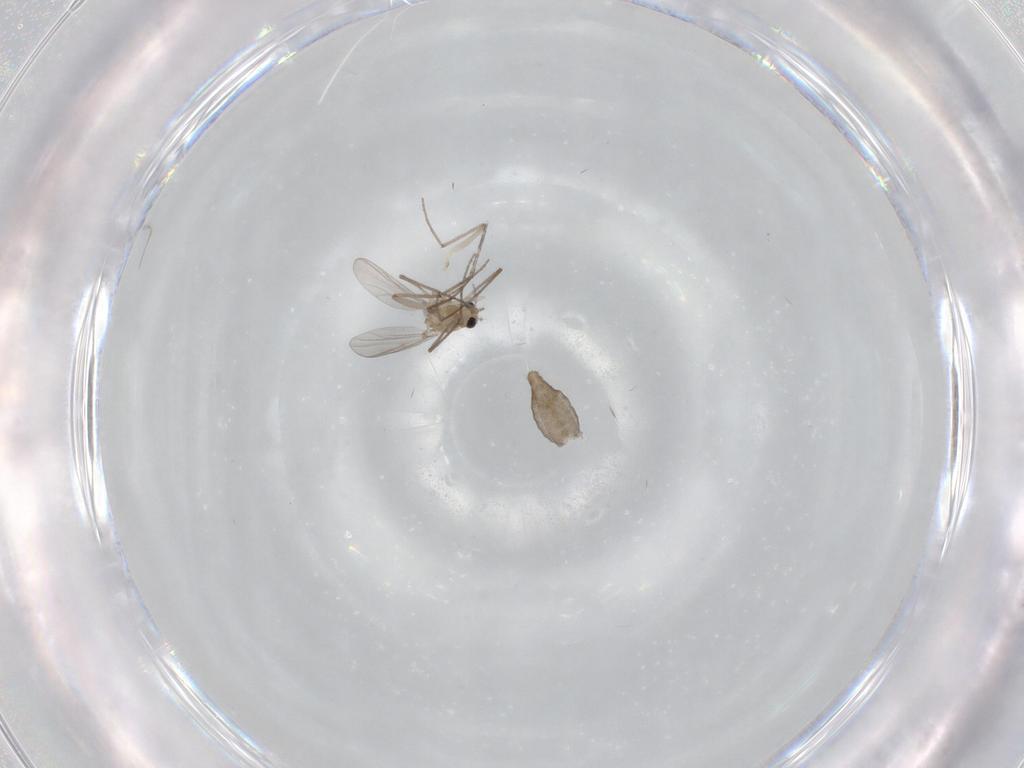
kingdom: Animalia
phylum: Arthropoda
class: Insecta
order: Diptera
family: Chironomidae
